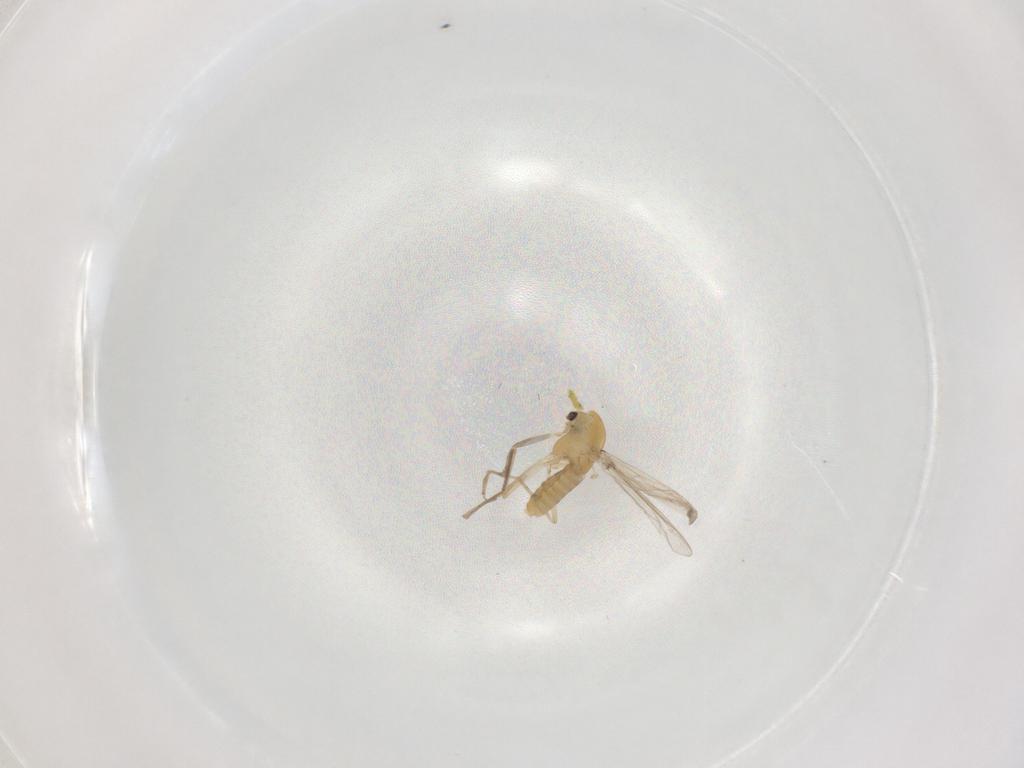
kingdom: Animalia
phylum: Arthropoda
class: Insecta
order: Diptera
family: Chironomidae
